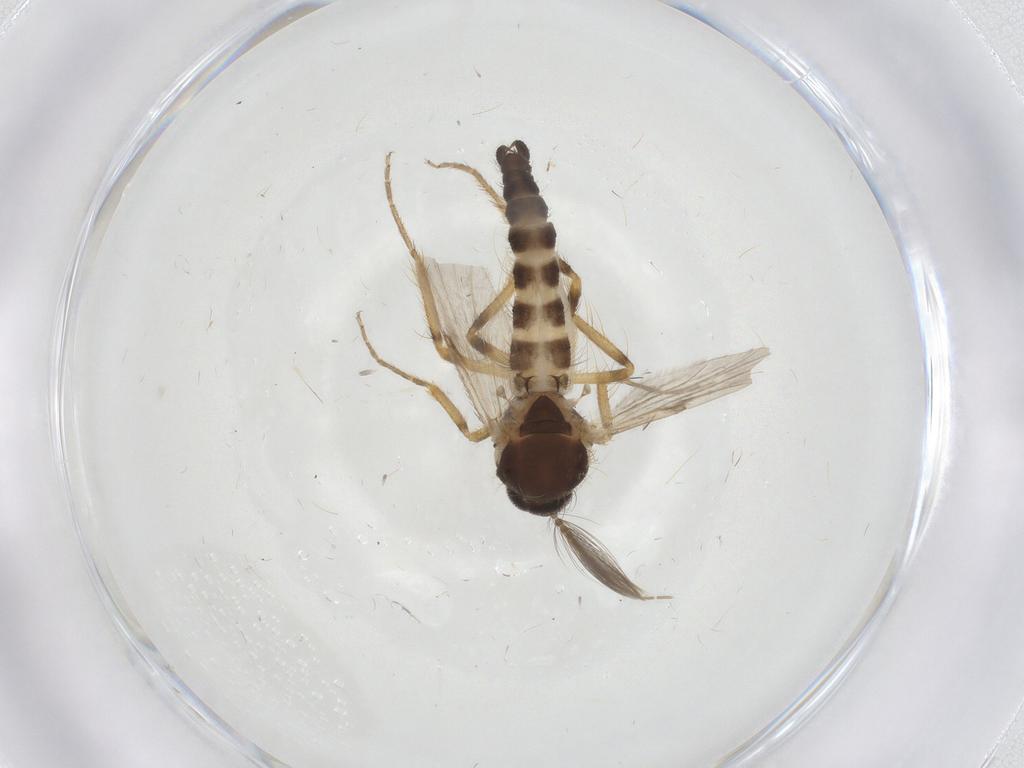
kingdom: Animalia
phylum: Arthropoda
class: Insecta
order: Diptera
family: Ceratopogonidae
